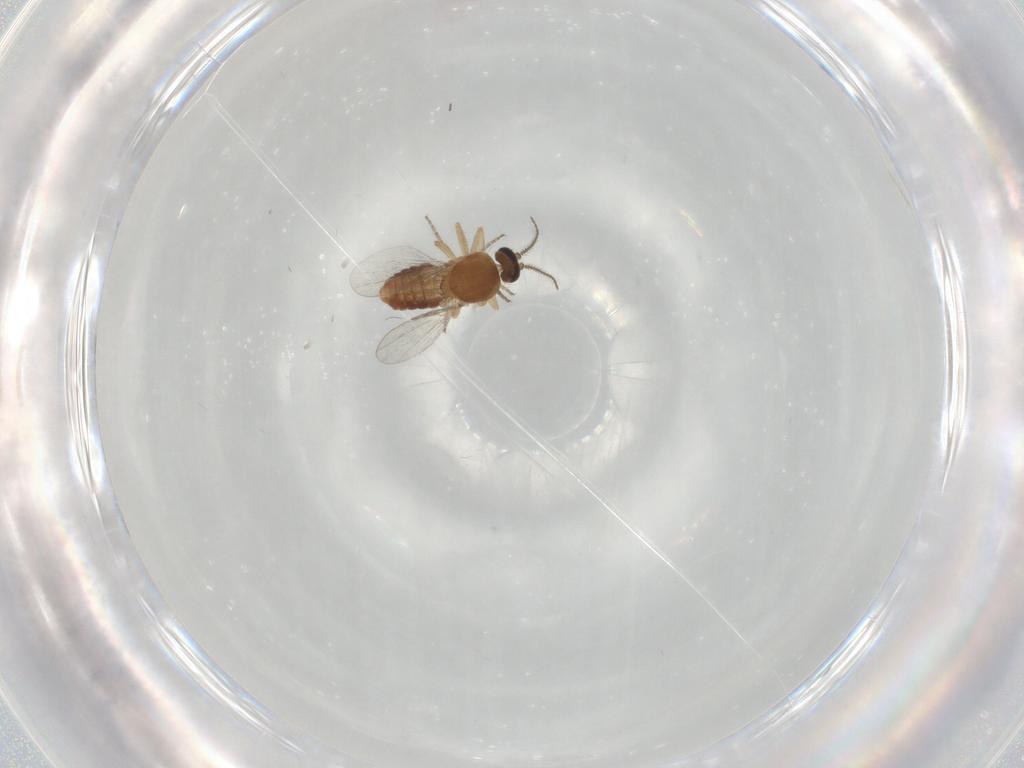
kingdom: Animalia
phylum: Arthropoda
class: Insecta
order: Diptera
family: Ceratopogonidae
